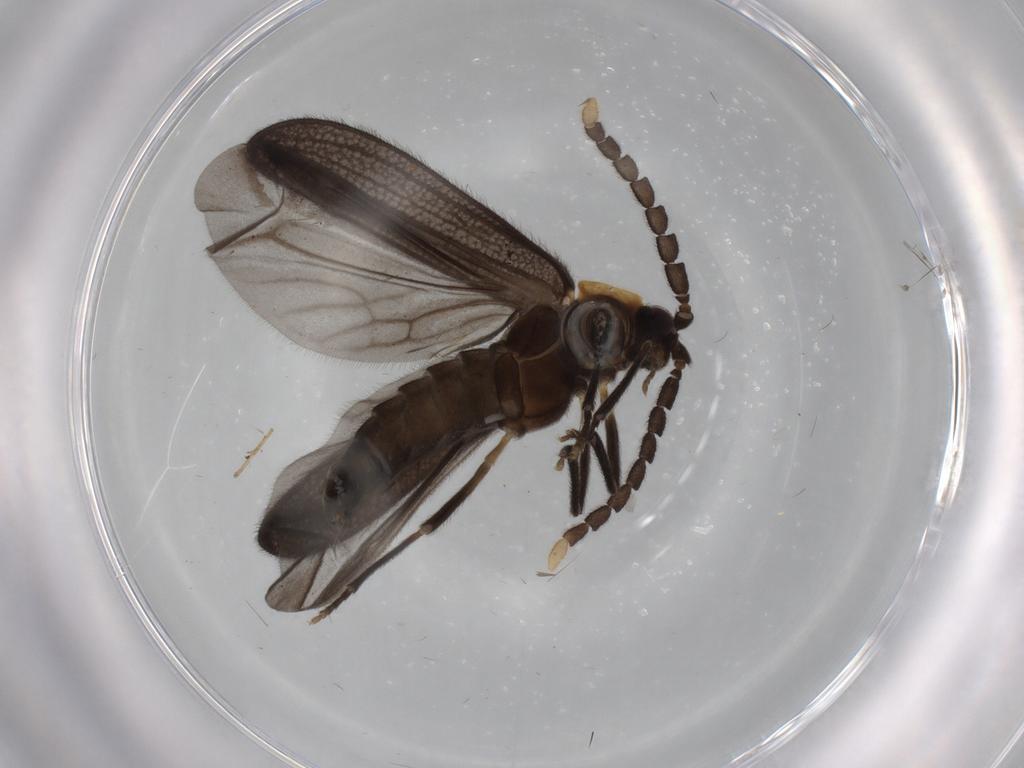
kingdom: Animalia
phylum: Arthropoda
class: Insecta
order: Coleoptera
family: Lycidae
